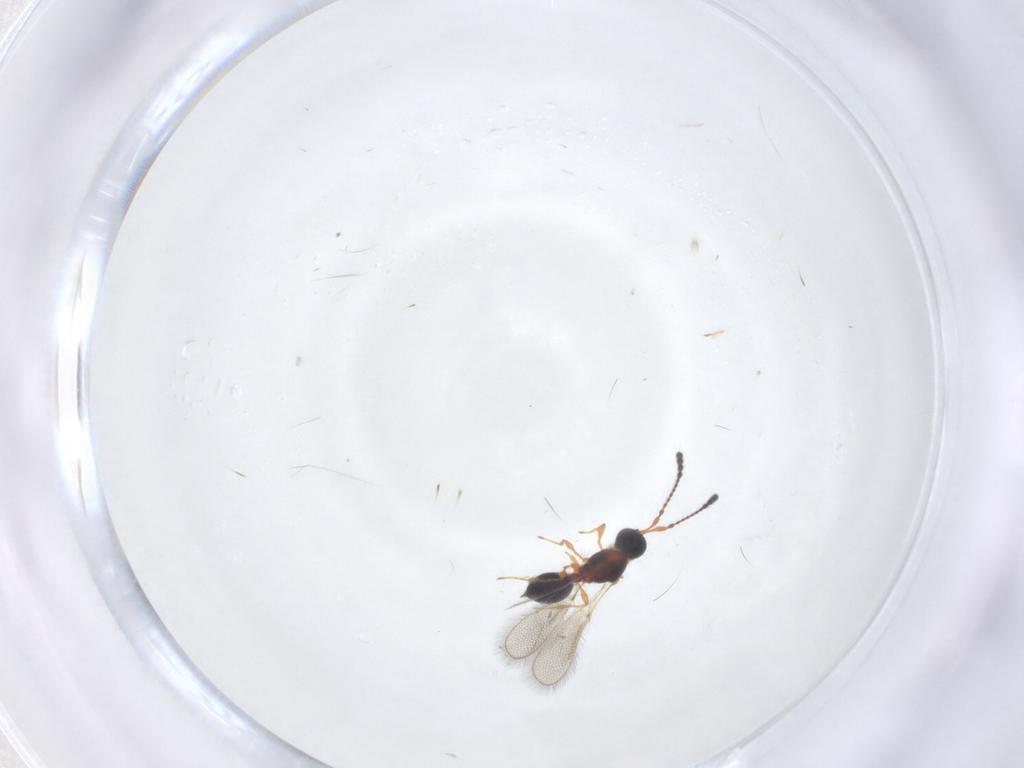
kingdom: Animalia
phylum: Arthropoda
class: Insecta
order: Hymenoptera
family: Diapriidae
